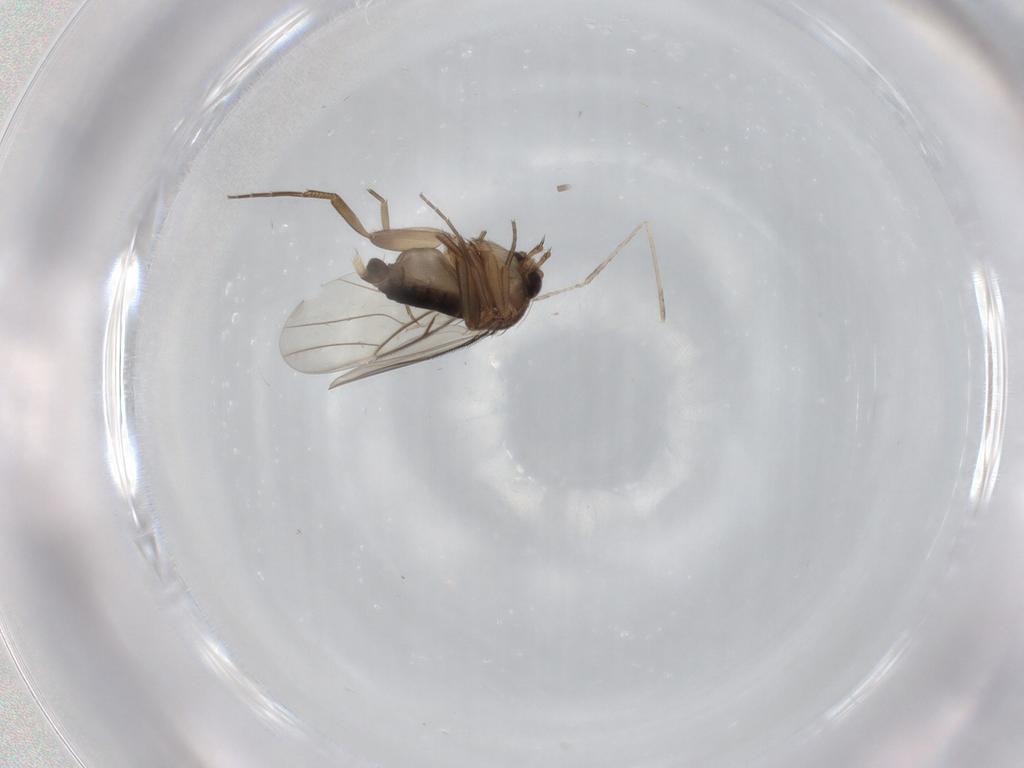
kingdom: Animalia
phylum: Arthropoda
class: Insecta
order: Diptera
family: Phoridae
